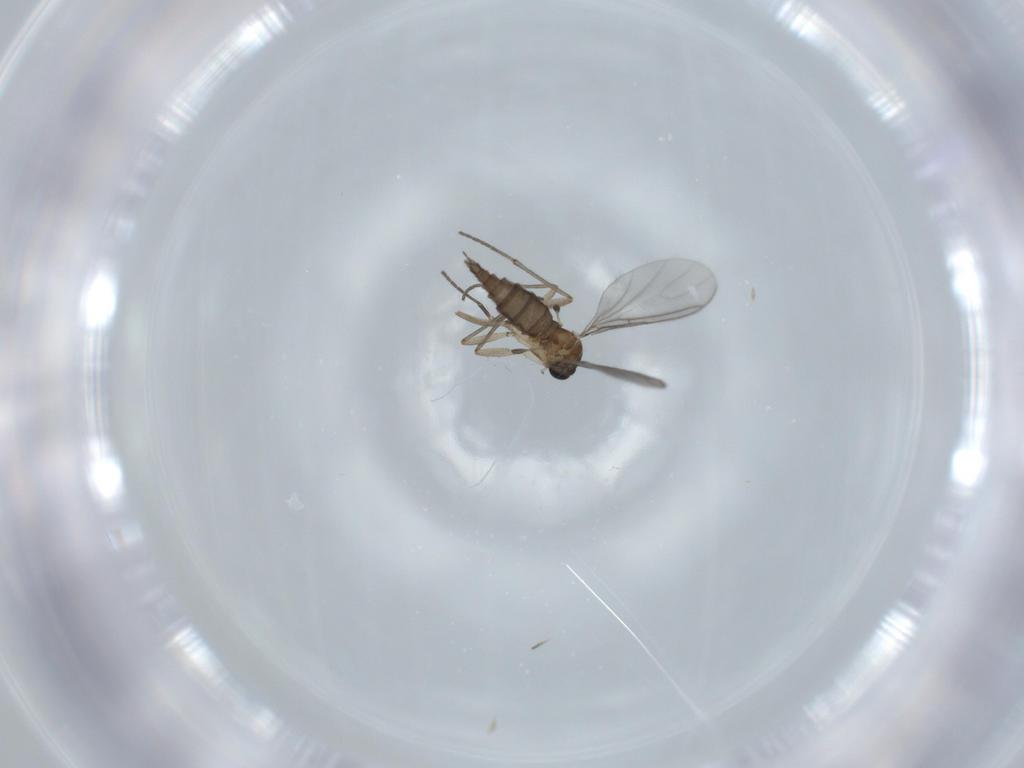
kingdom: Animalia
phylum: Arthropoda
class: Insecta
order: Diptera
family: Sciaridae
